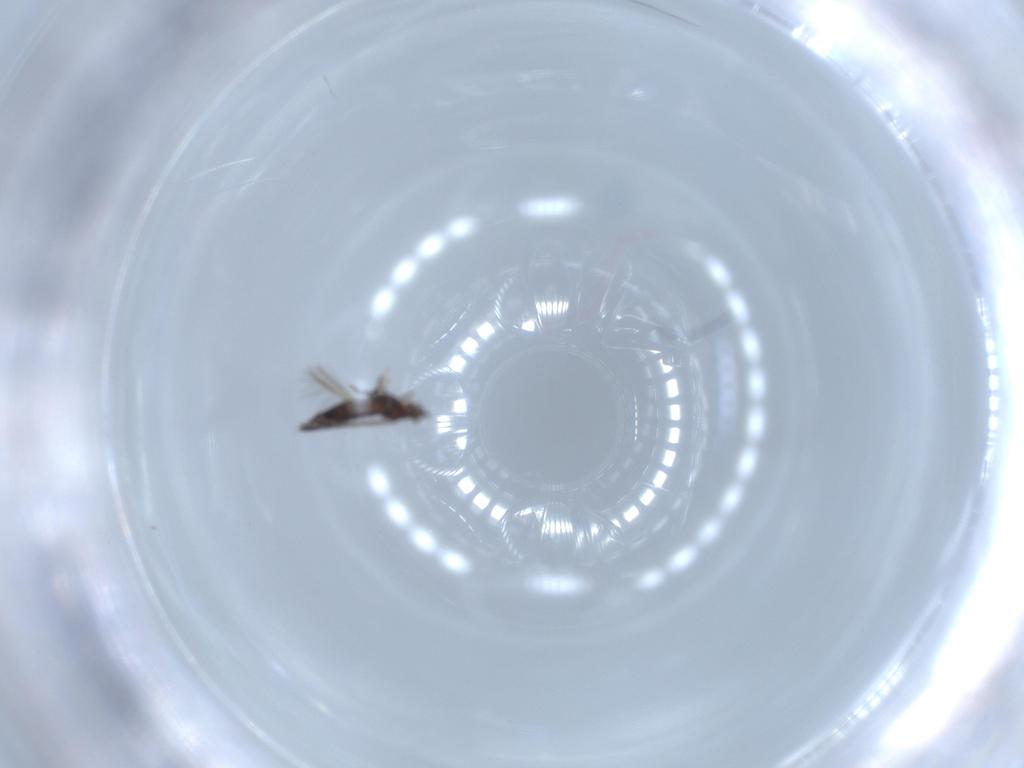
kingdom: Animalia
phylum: Arthropoda
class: Insecta
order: Thysanoptera
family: Thripidae
